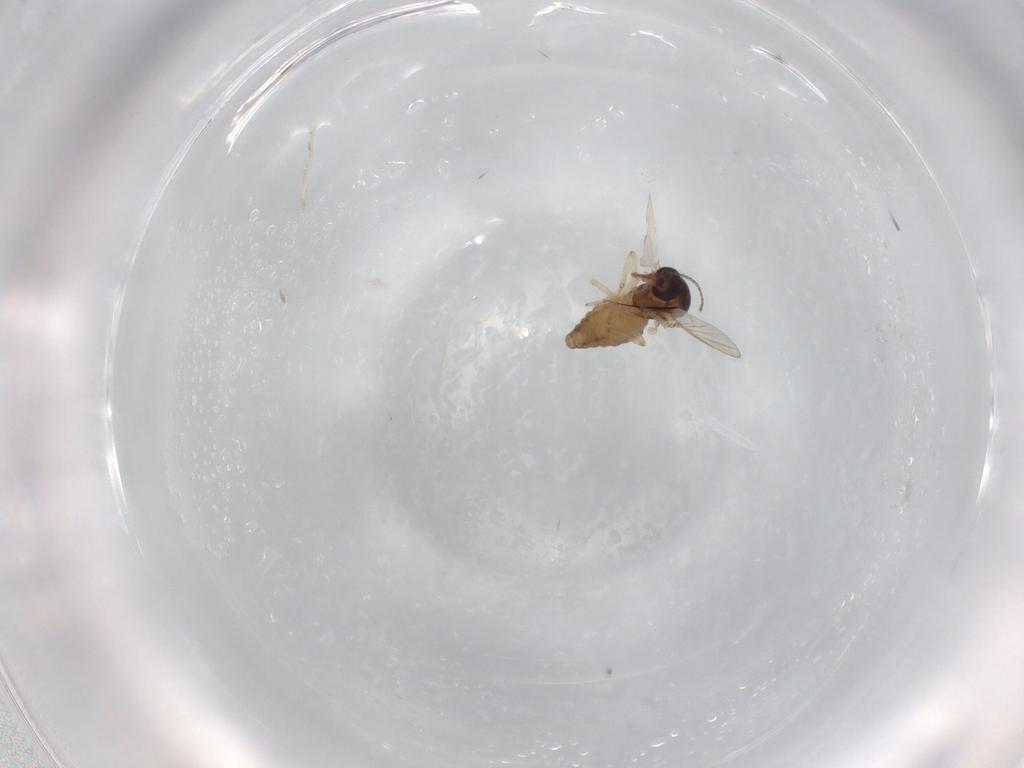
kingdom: Animalia
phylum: Arthropoda
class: Insecta
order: Diptera
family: Ceratopogonidae
